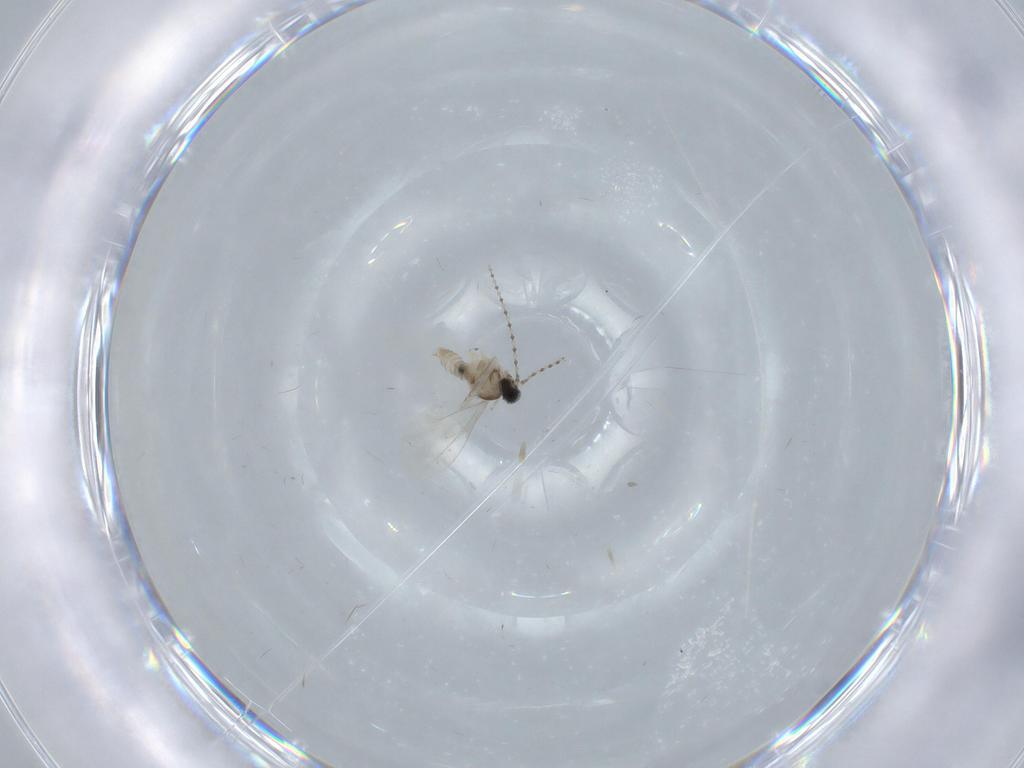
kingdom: Animalia
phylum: Arthropoda
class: Insecta
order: Diptera
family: Cecidomyiidae
